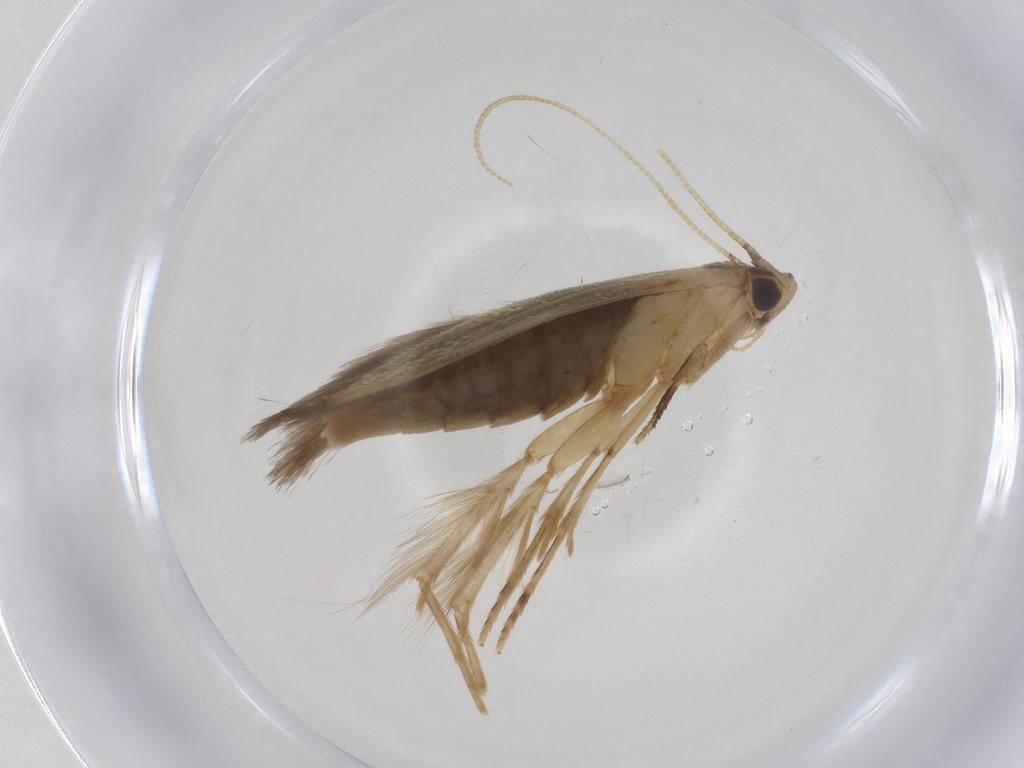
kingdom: Animalia
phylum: Arthropoda
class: Insecta
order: Lepidoptera
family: Tineidae
